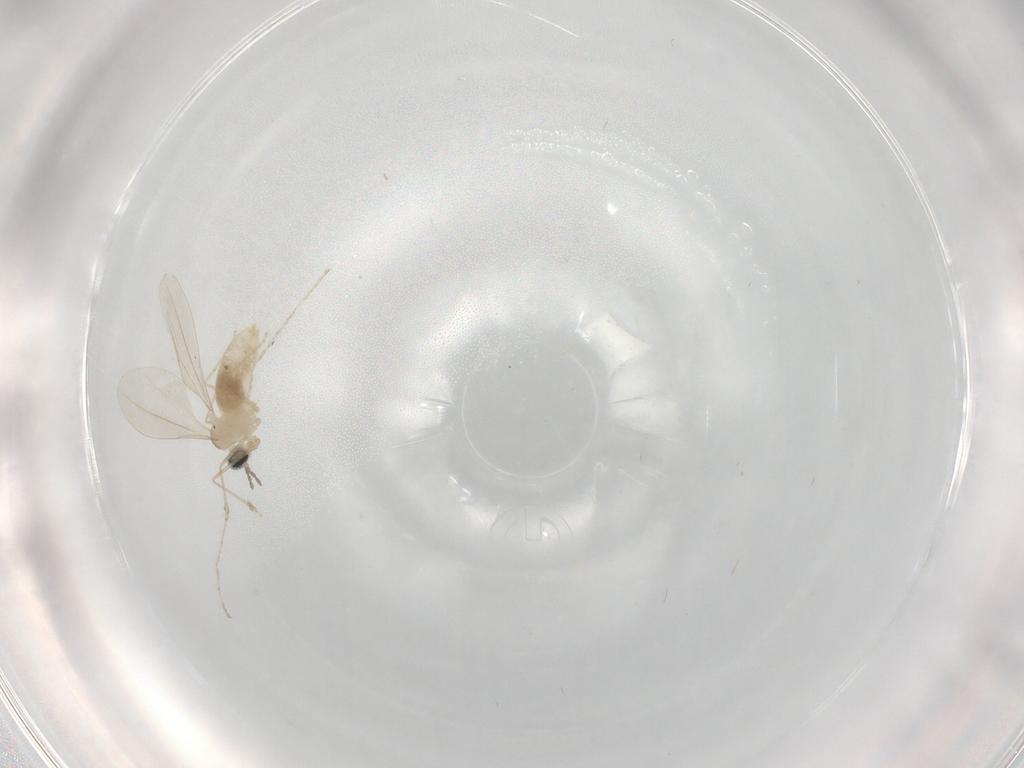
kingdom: Animalia
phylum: Arthropoda
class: Insecta
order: Diptera
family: Cecidomyiidae
